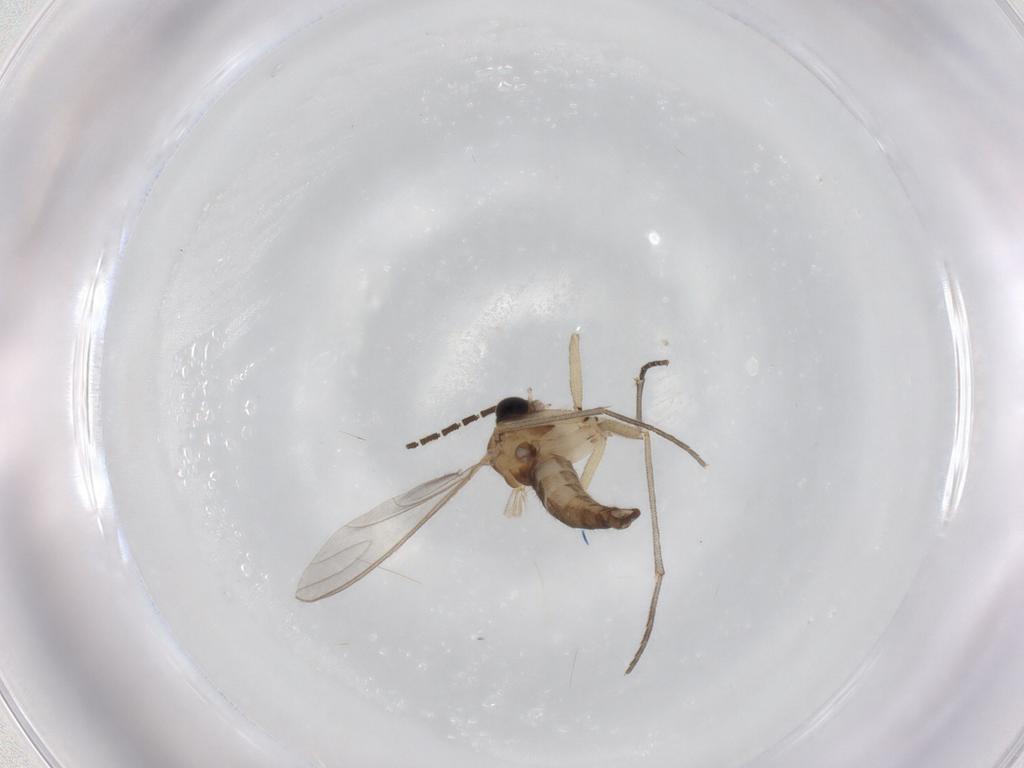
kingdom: Animalia
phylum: Arthropoda
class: Insecta
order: Diptera
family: Sciaridae
